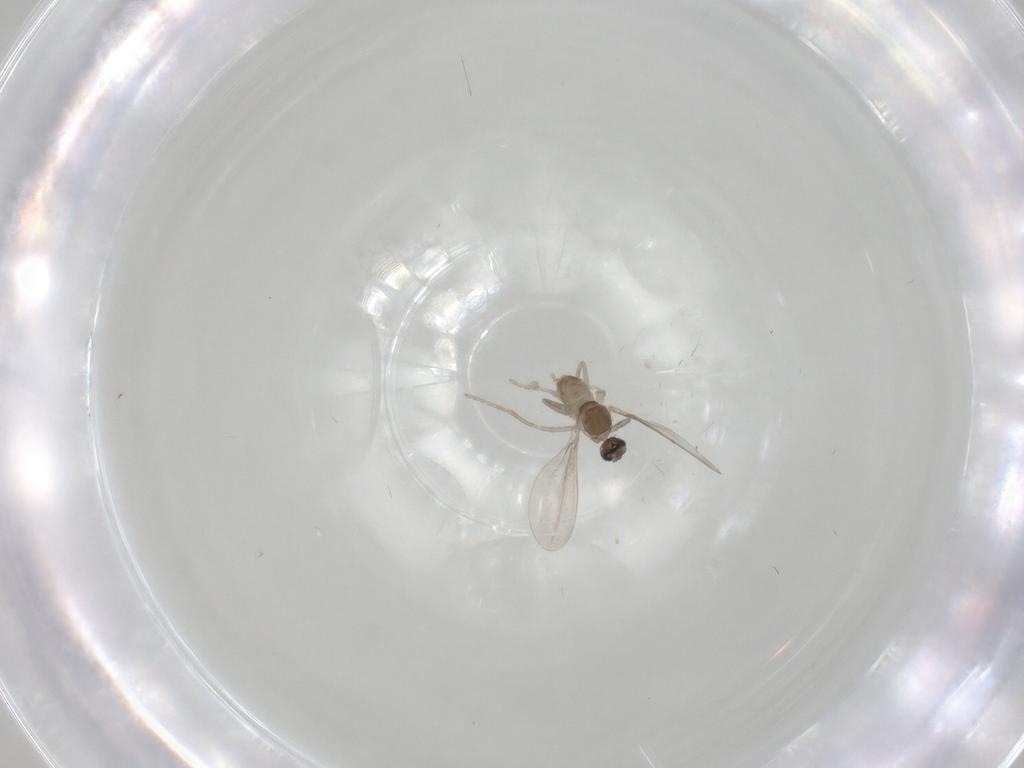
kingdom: Animalia
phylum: Arthropoda
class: Insecta
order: Diptera
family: Cecidomyiidae
